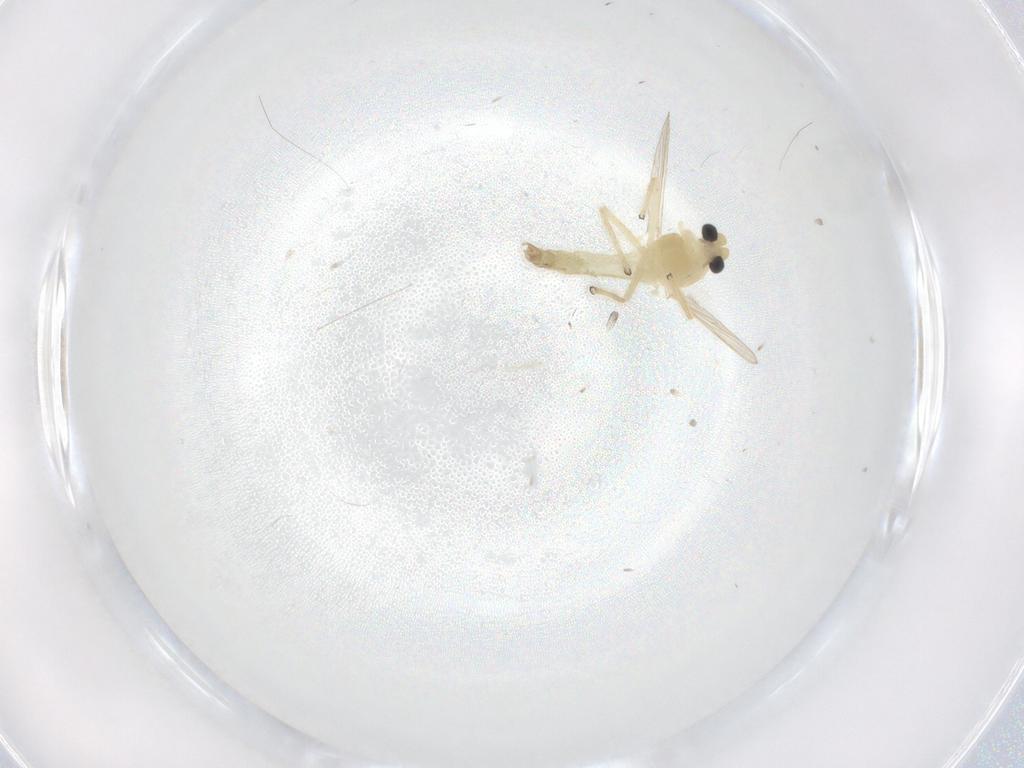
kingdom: Animalia
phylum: Arthropoda
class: Insecta
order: Diptera
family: Chironomidae
